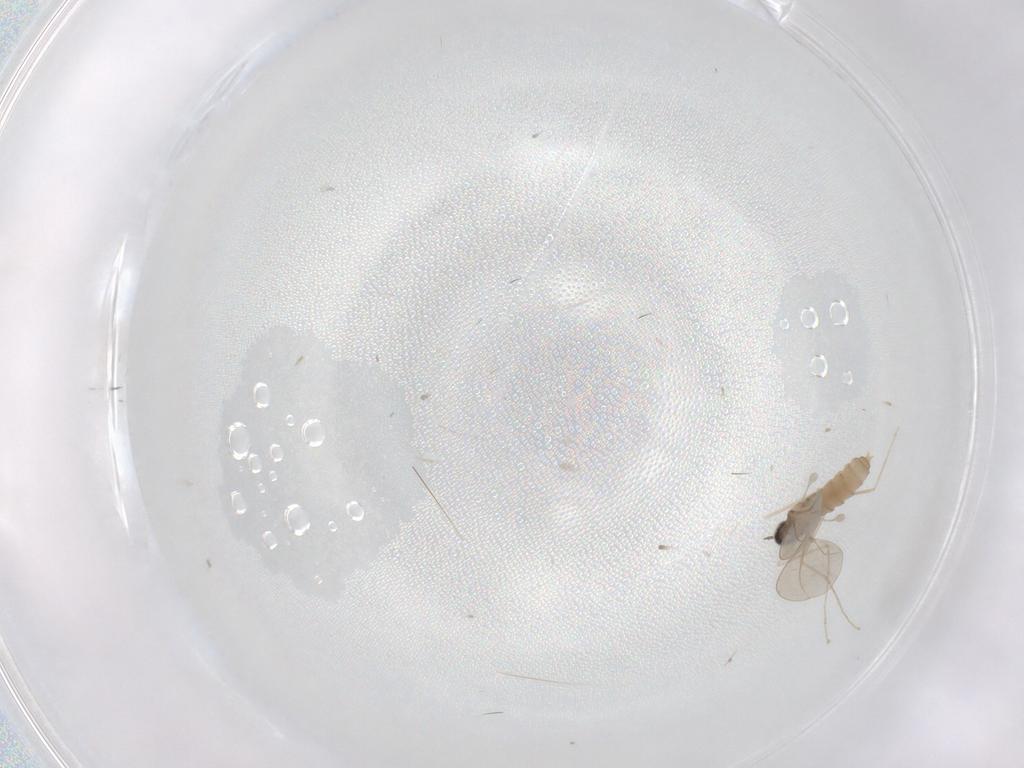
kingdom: Animalia
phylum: Arthropoda
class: Insecta
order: Diptera
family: Cecidomyiidae
